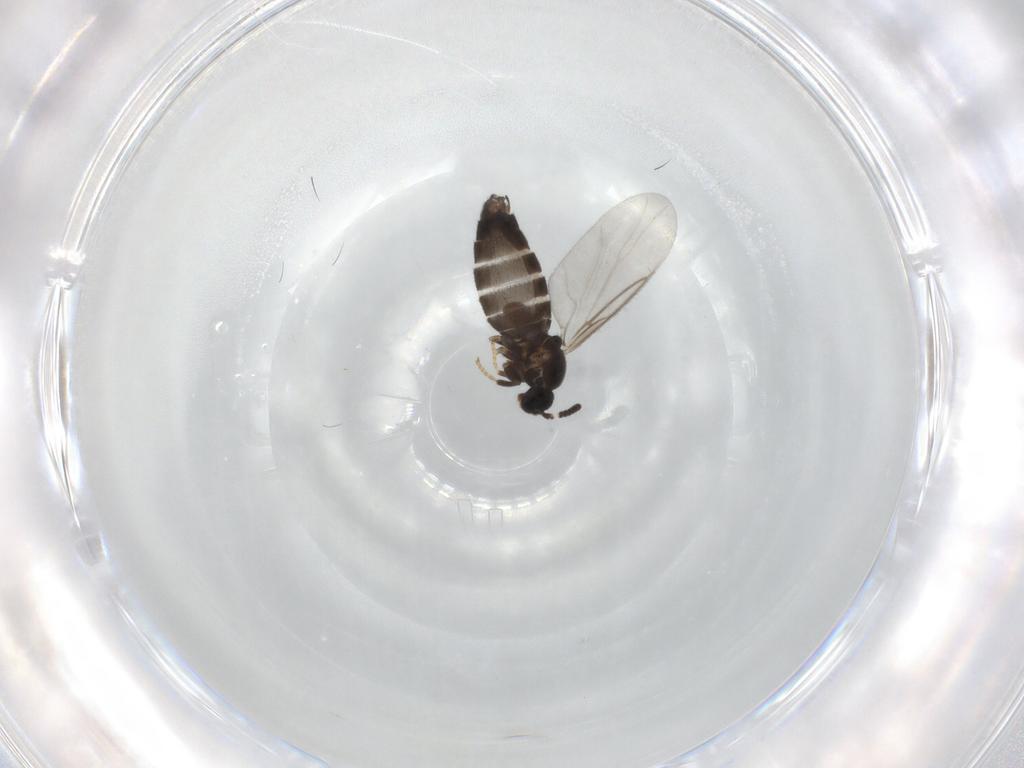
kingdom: Animalia
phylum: Arthropoda
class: Insecta
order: Diptera
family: Scatopsidae
